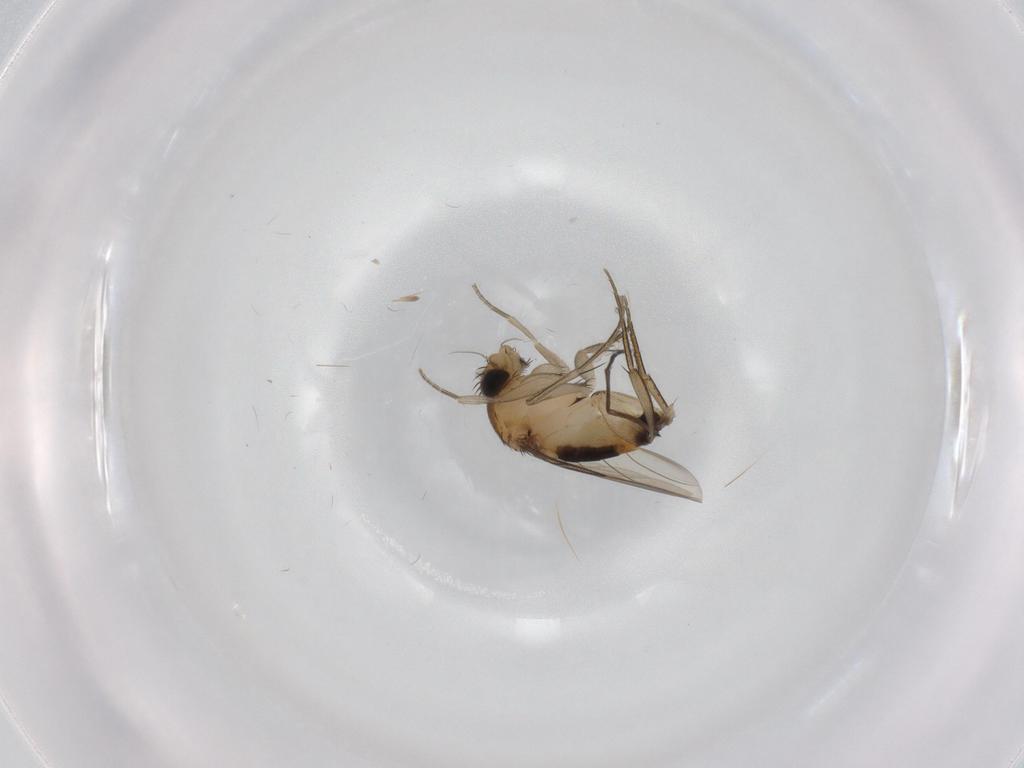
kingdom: Animalia
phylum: Arthropoda
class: Insecta
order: Diptera
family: Phoridae
